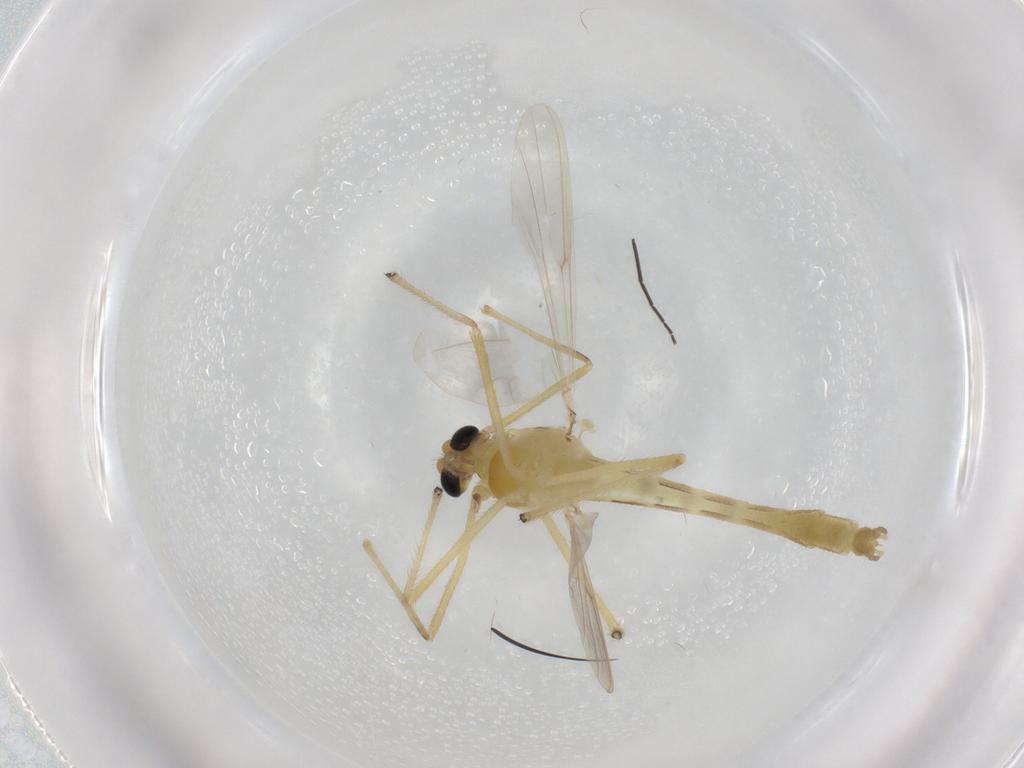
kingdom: Animalia
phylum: Arthropoda
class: Insecta
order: Diptera
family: Chironomidae
